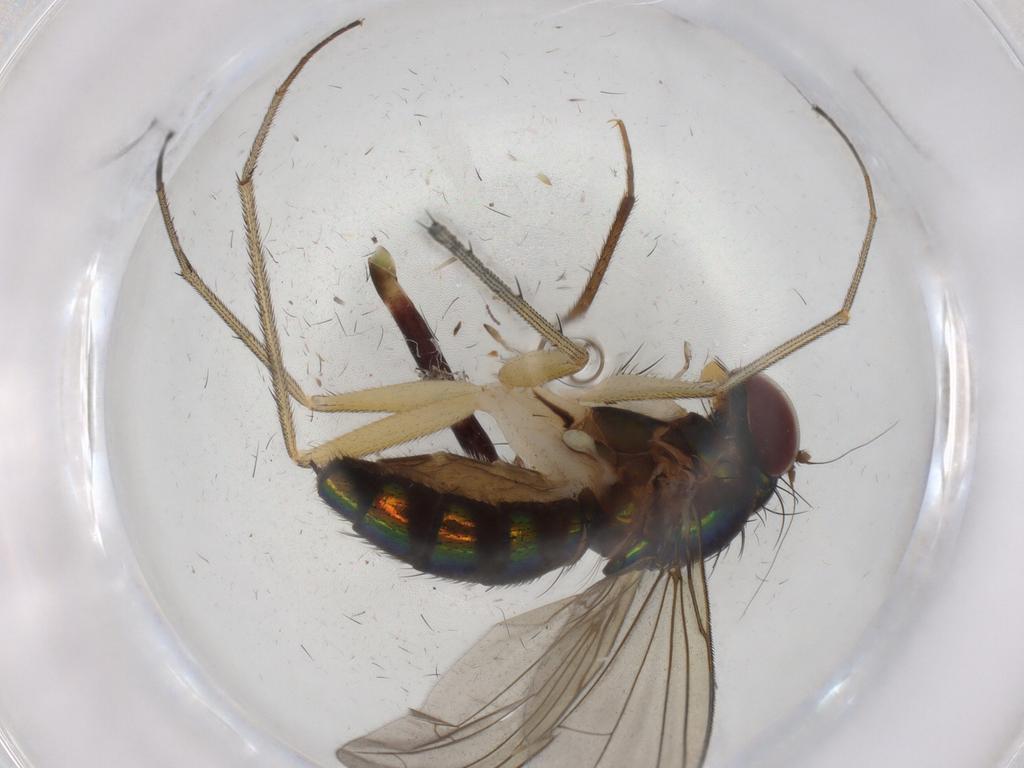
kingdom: Animalia
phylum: Arthropoda
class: Insecta
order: Diptera
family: Dolichopodidae
